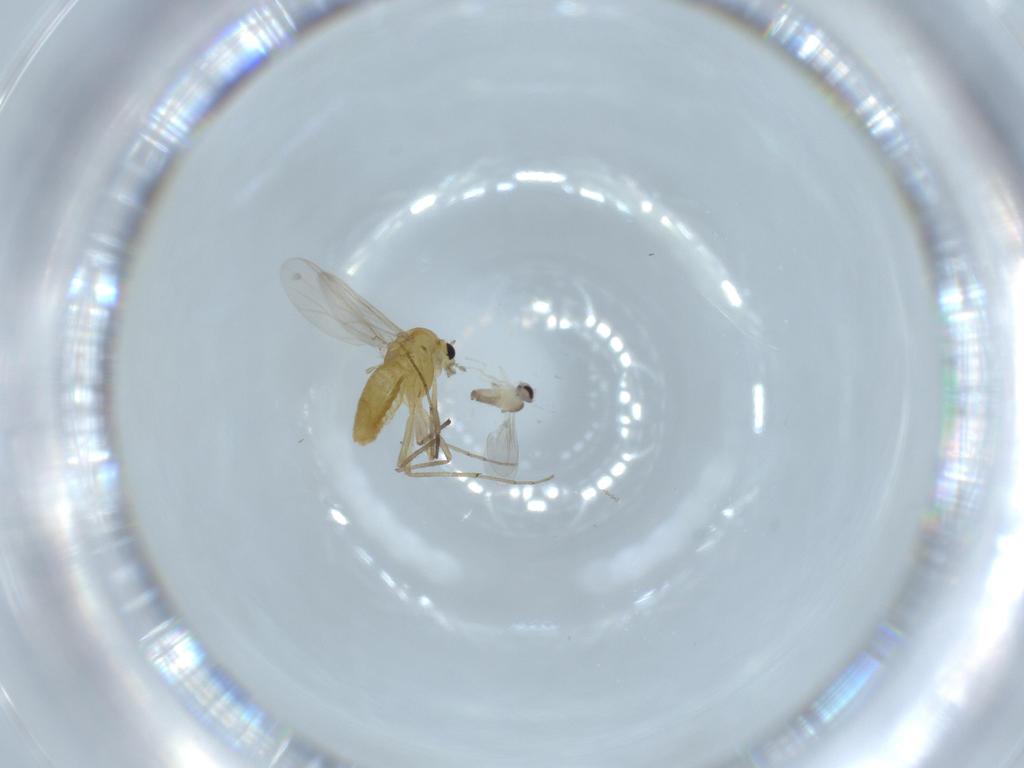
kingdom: Animalia
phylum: Arthropoda
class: Insecta
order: Diptera
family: Cecidomyiidae
